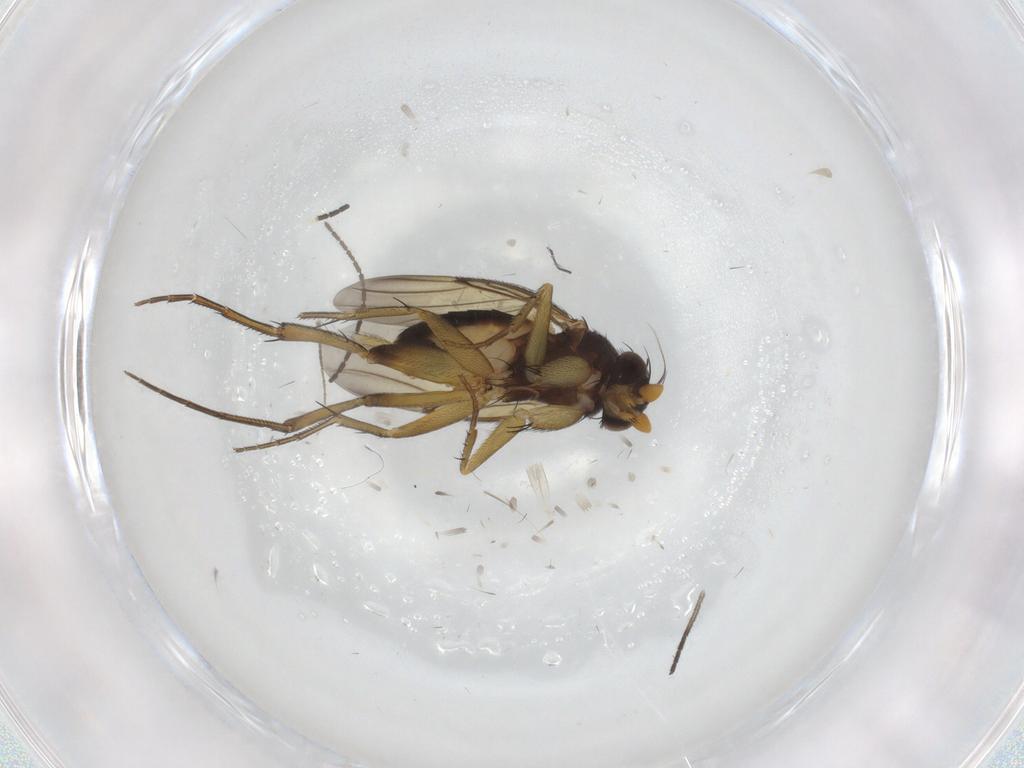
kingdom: Animalia
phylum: Arthropoda
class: Insecta
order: Diptera
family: Phoridae
